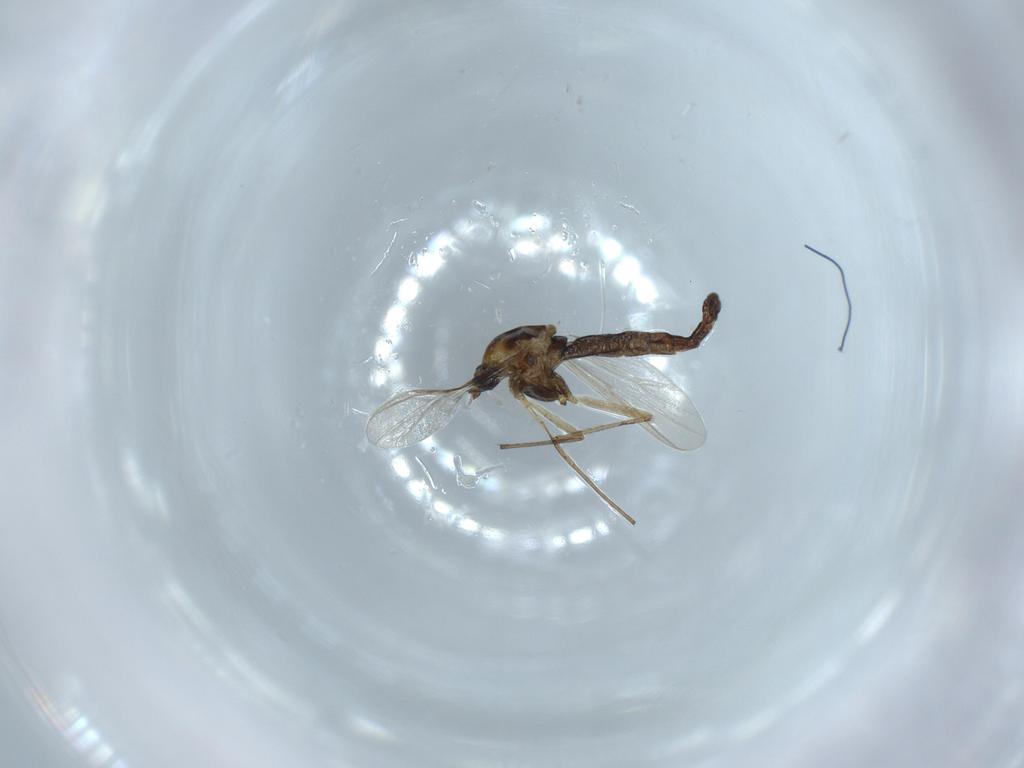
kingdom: Animalia
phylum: Arthropoda
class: Insecta
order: Diptera
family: Chironomidae
